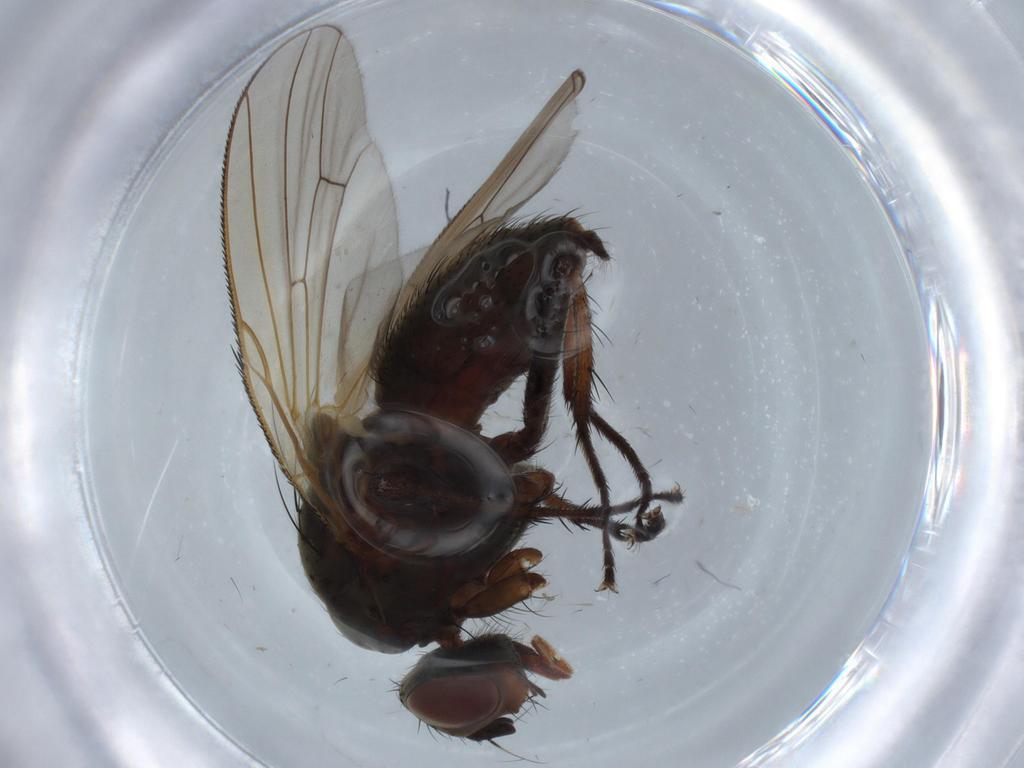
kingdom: Animalia
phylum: Arthropoda
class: Insecta
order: Diptera
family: Anthomyiidae
